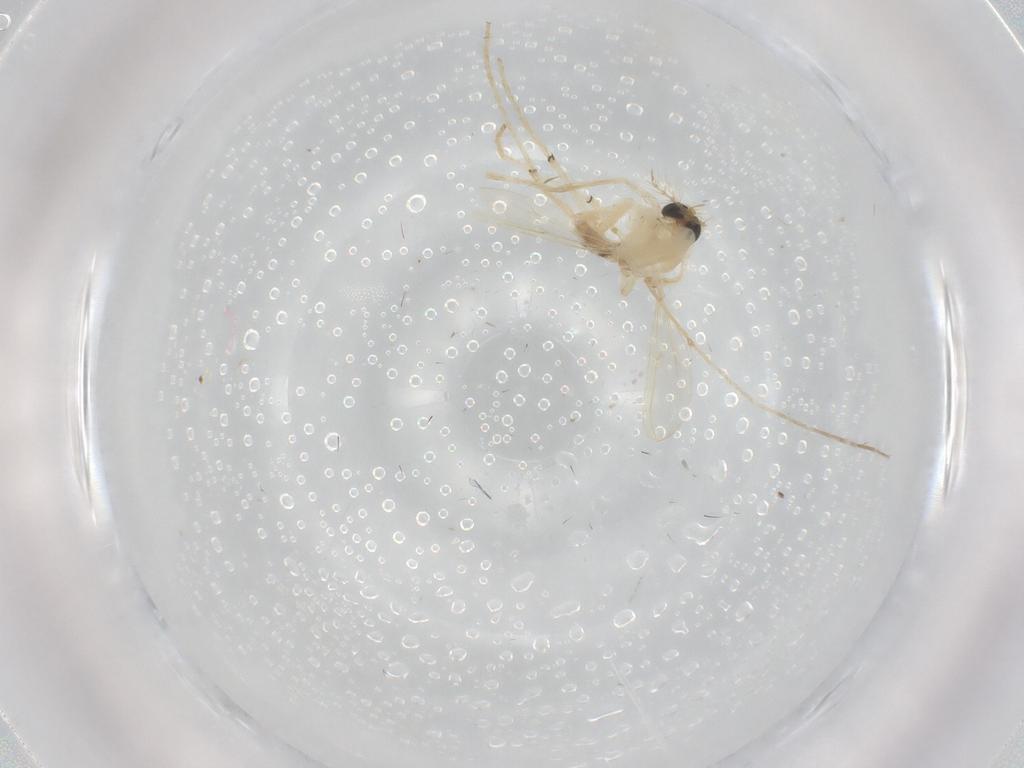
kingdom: Animalia
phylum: Arthropoda
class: Insecta
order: Diptera
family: Chironomidae
